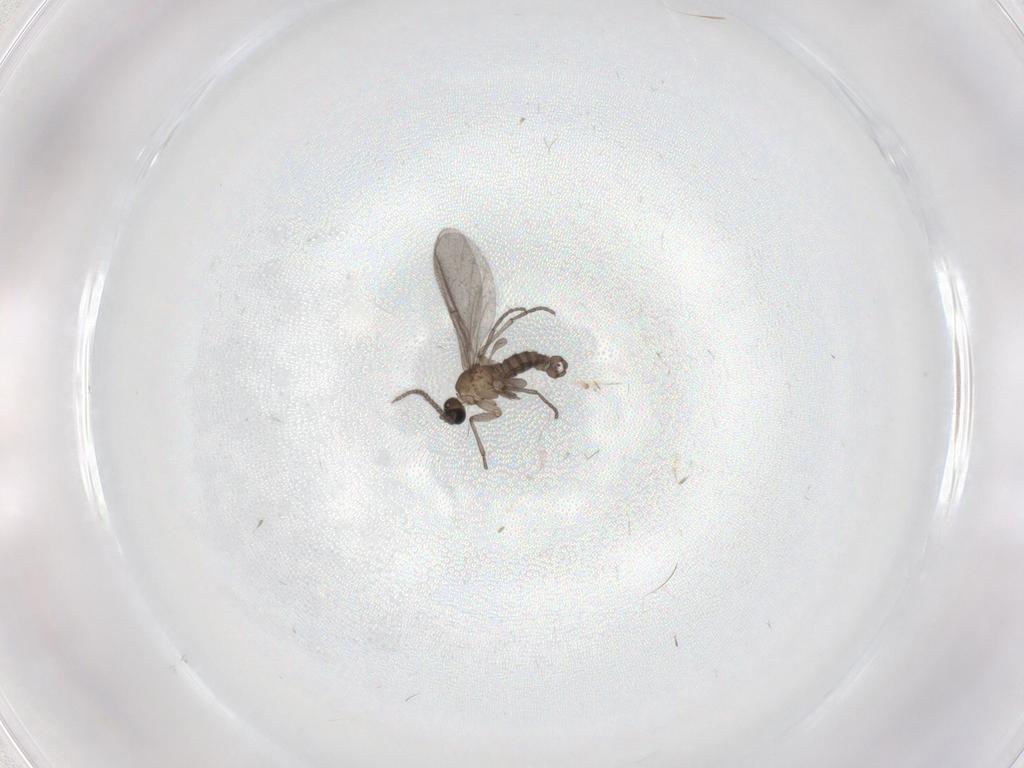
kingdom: Animalia
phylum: Arthropoda
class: Insecta
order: Diptera
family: Sciaridae
